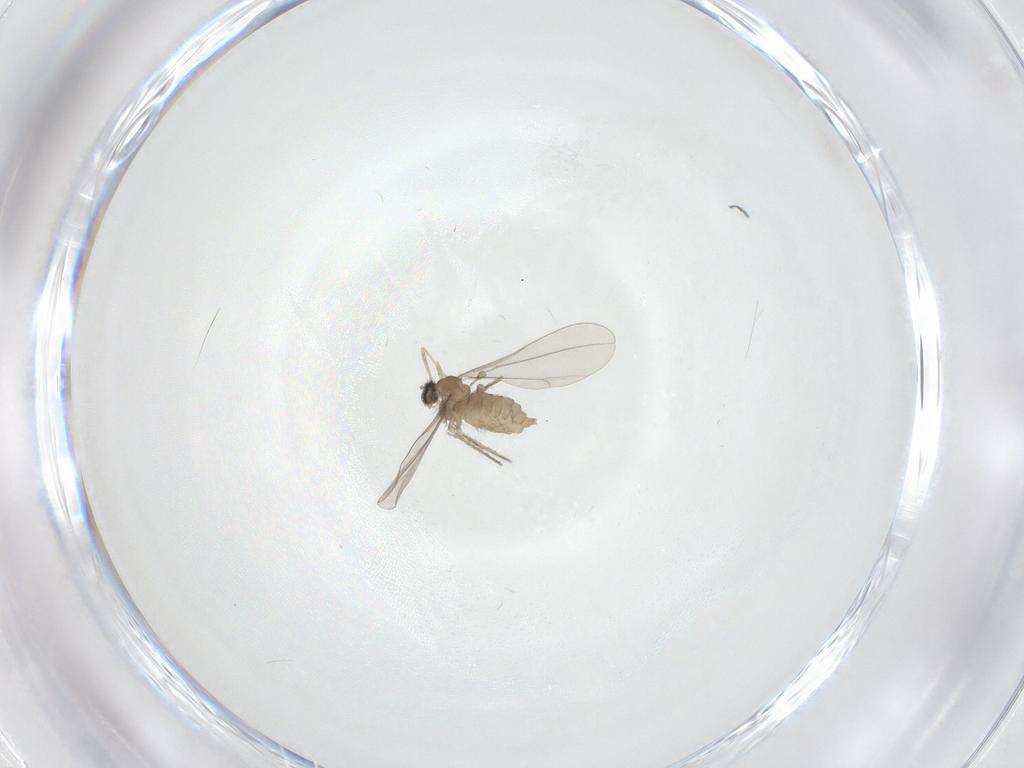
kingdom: Animalia
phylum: Arthropoda
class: Insecta
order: Diptera
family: Cecidomyiidae
